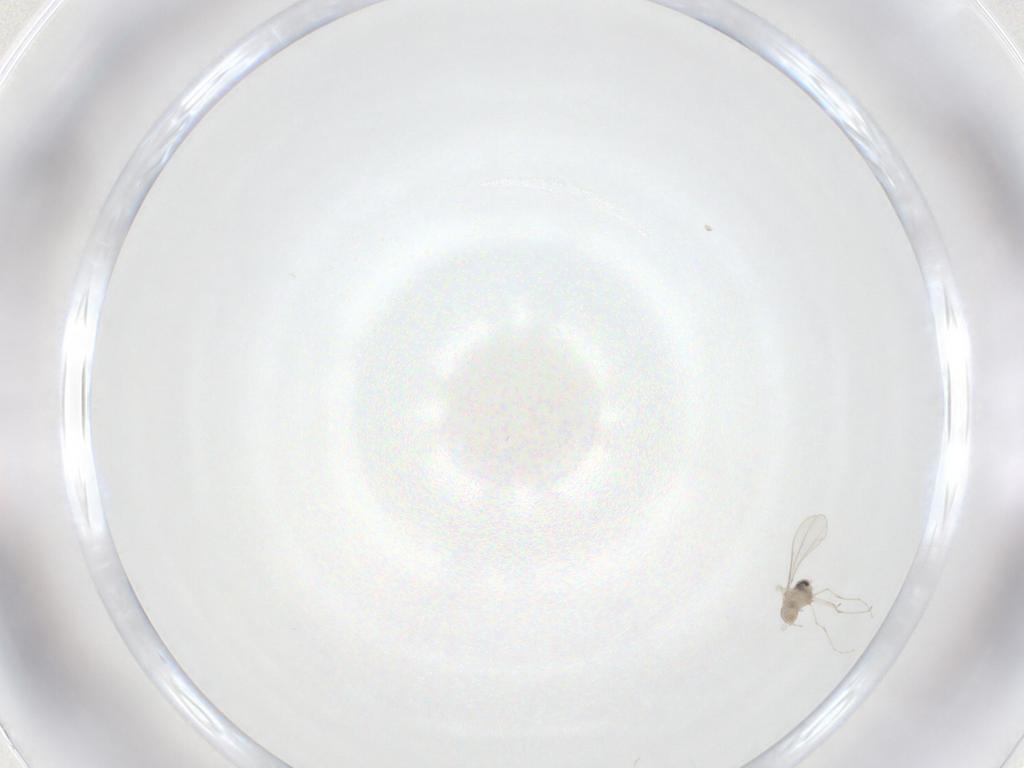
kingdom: Animalia
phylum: Arthropoda
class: Insecta
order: Diptera
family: Cecidomyiidae
